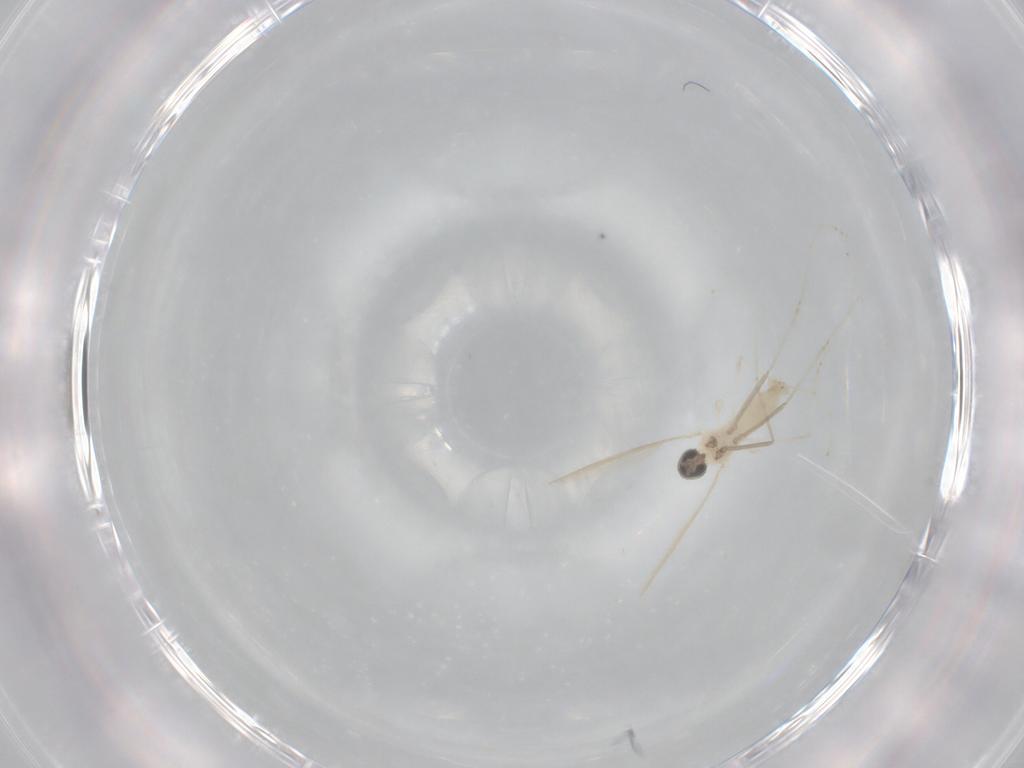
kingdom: Animalia
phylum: Arthropoda
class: Insecta
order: Diptera
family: Cecidomyiidae
